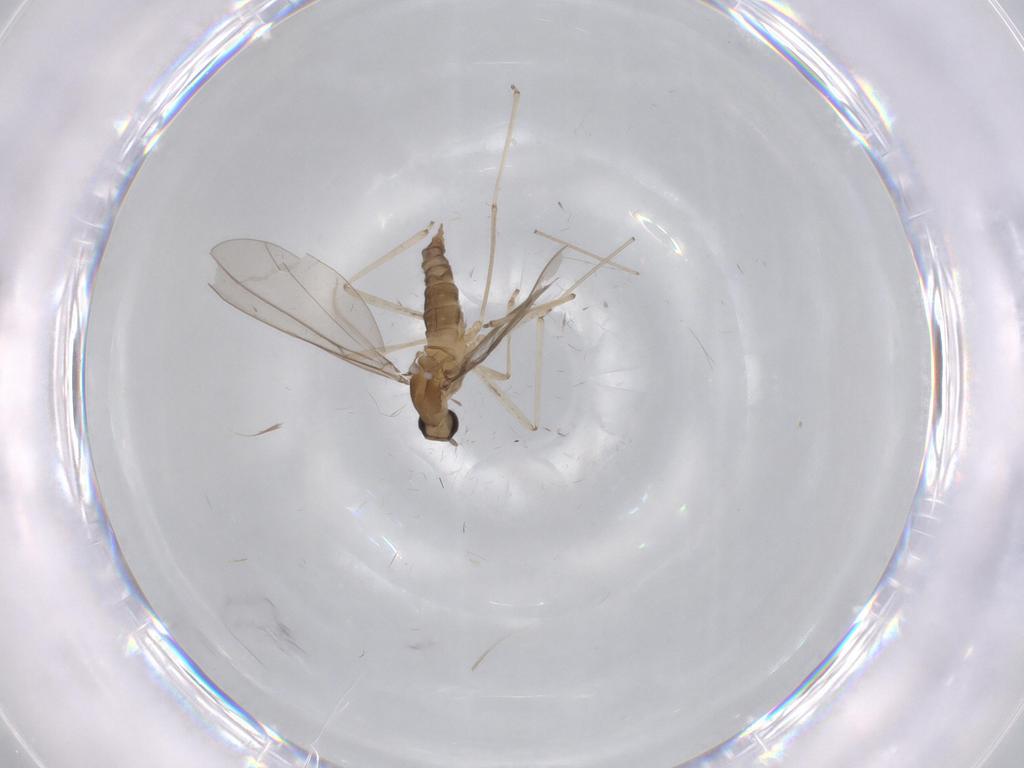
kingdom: Animalia
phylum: Arthropoda
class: Insecta
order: Diptera
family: Cecidomyiidae
